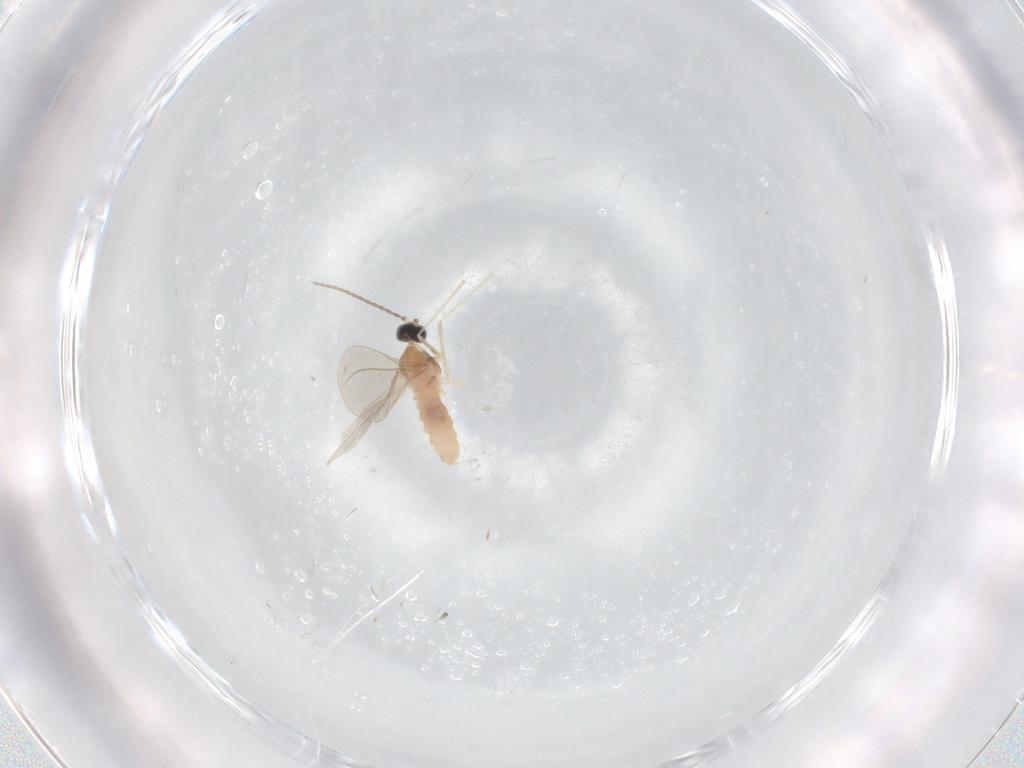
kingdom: Animalia
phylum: Arthropoda
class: Insecta
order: Diptera
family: Cecidomyiidae
